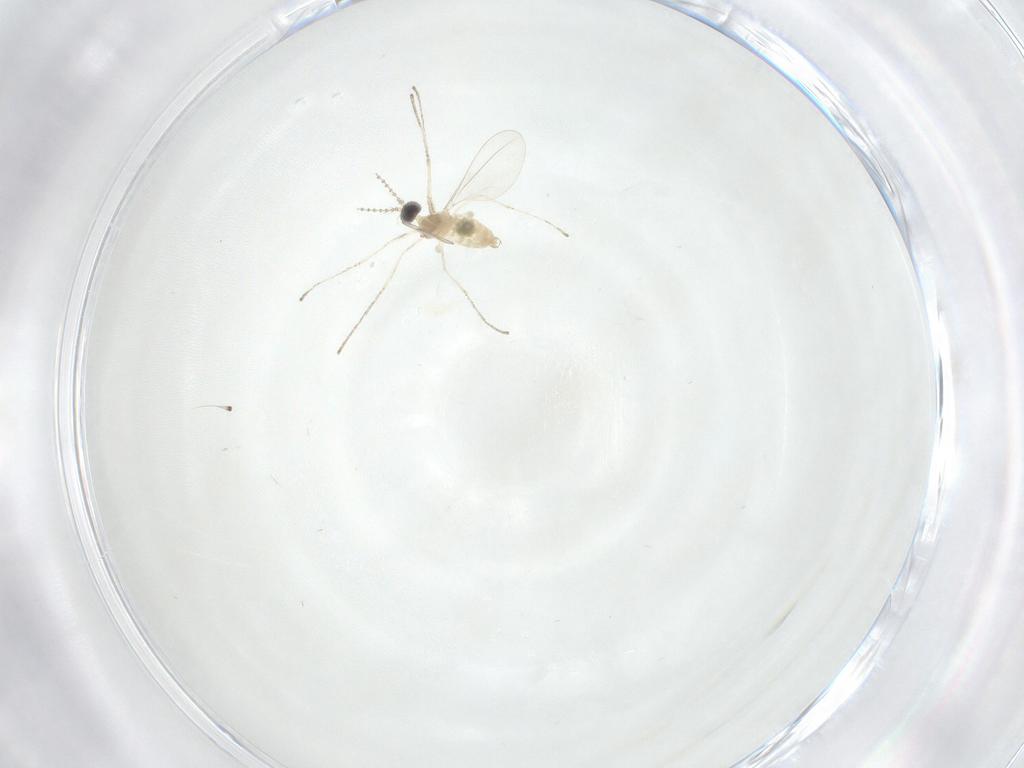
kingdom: Animalia
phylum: Arthropoda
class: Insecta
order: Diptera
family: Cecidomyiidae
